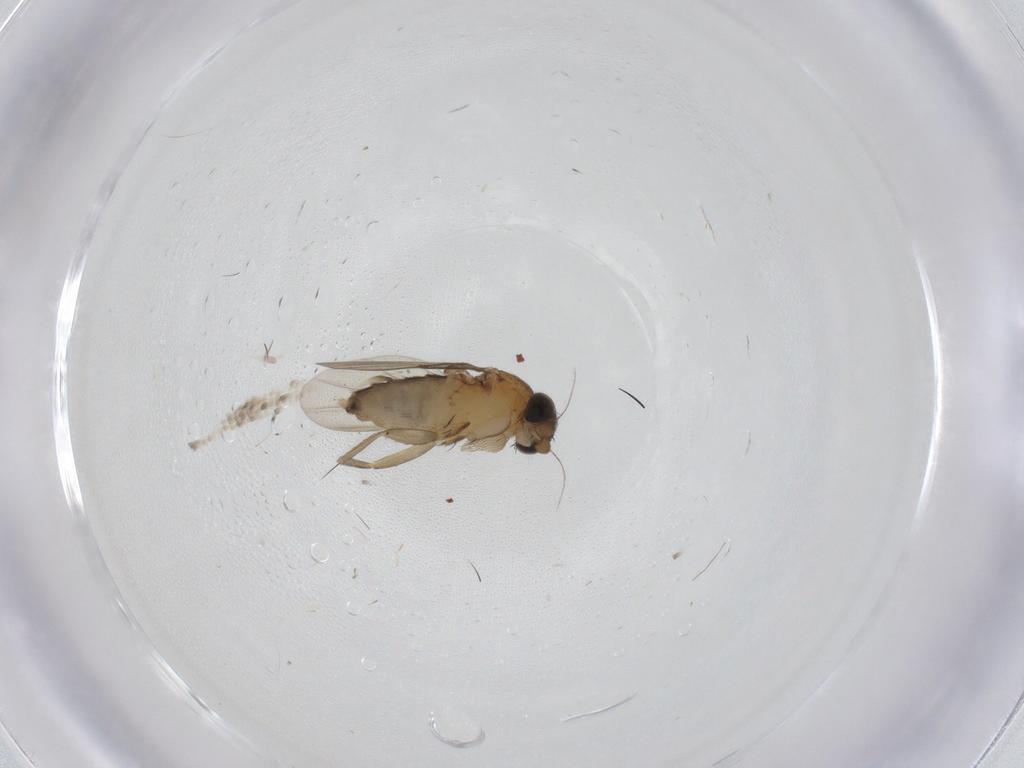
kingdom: Animalia
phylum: Arthropoda
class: Insecta
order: Diptera
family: Phoridae
